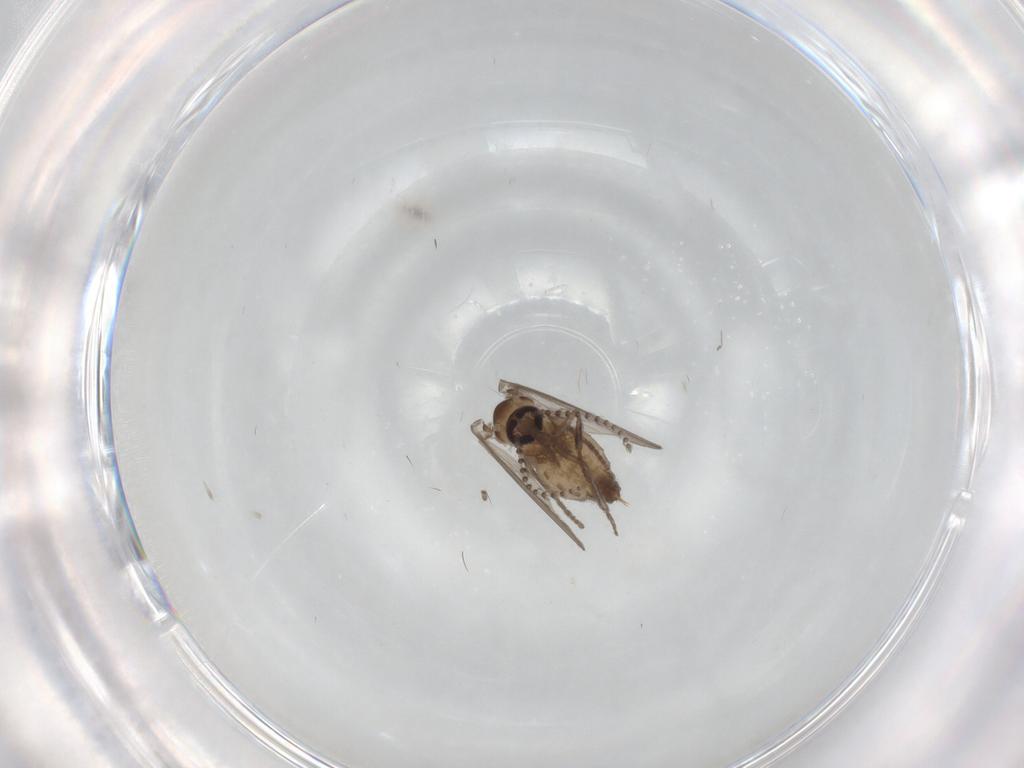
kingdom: Animalia
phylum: Arthropoda
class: Insecta
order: Diptera
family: Psychodidae
